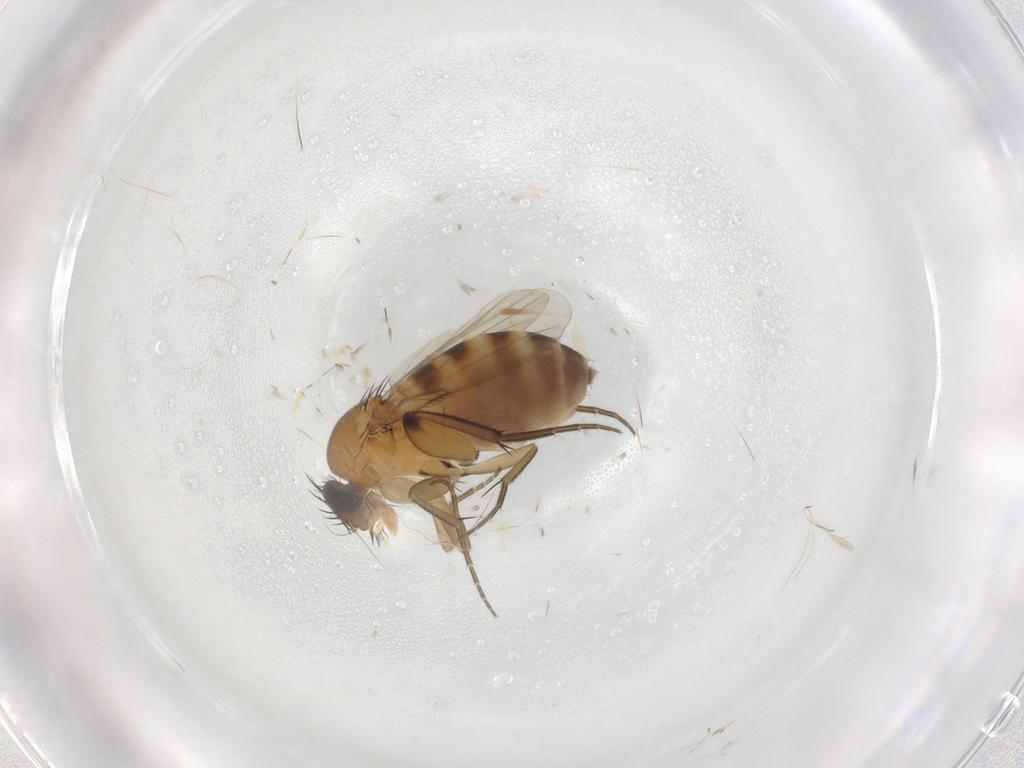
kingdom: Animalia
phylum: Arthropoda
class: Insecta
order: Diptera
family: Phoridae
